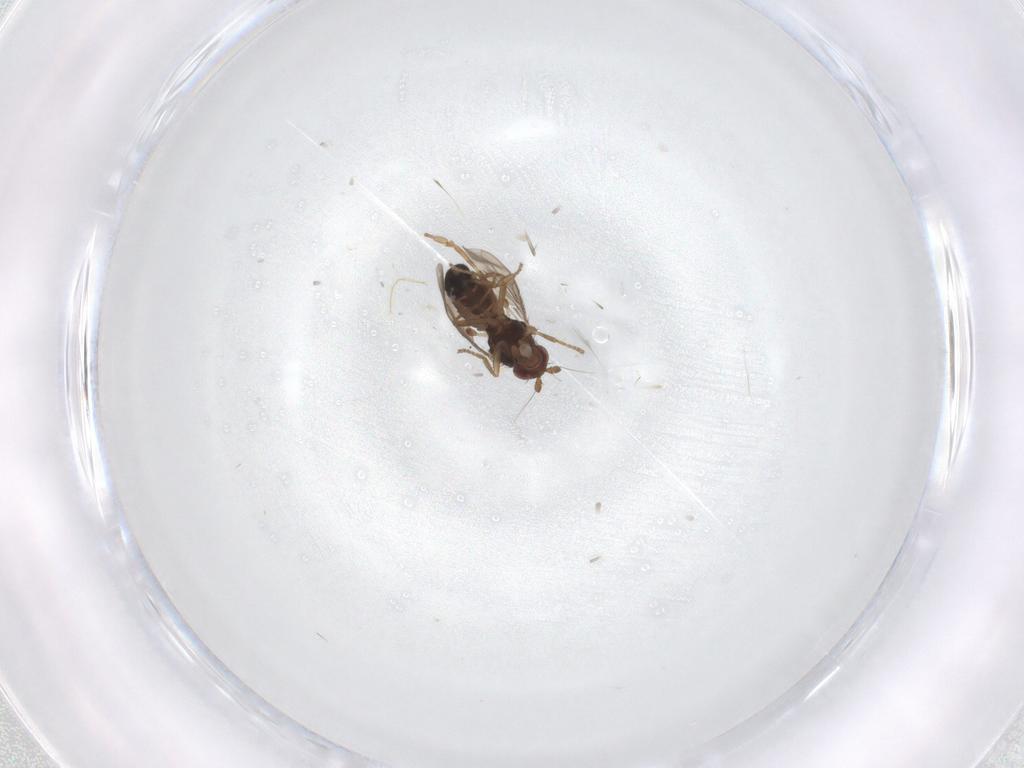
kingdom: Animalia
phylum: Arthropoda
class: Insecta
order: Diptera
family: Sphaeroceridae
